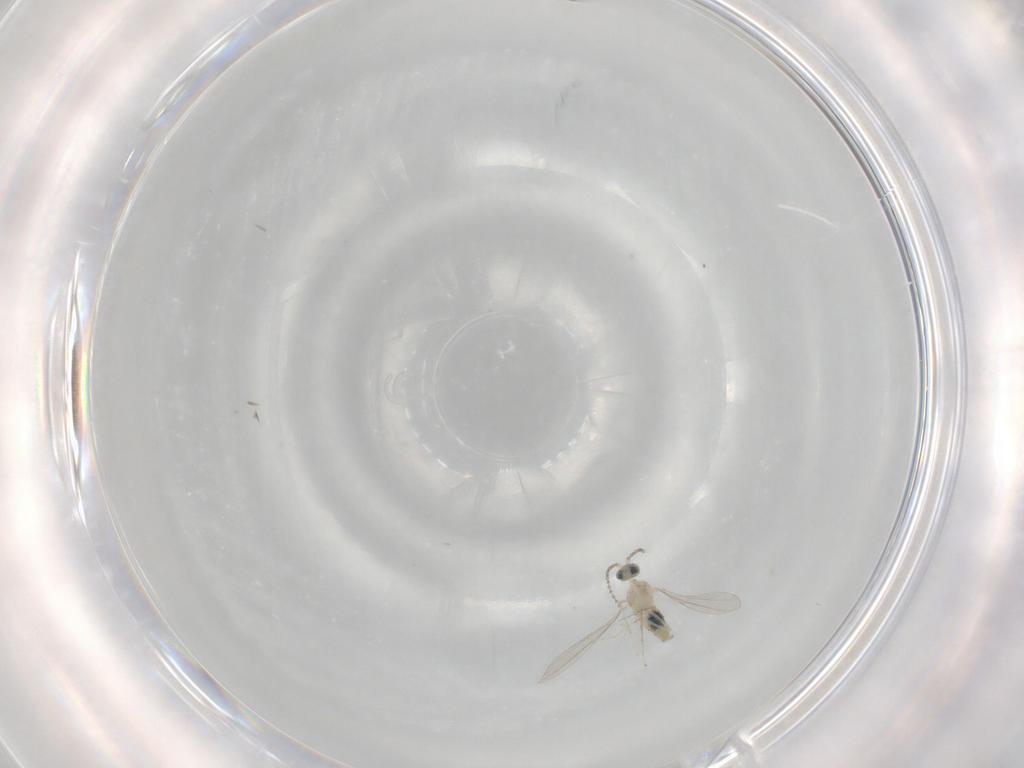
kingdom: Animalia
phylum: Arthropoda
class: Insecta
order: Diptera
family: Cecidomyiidae
